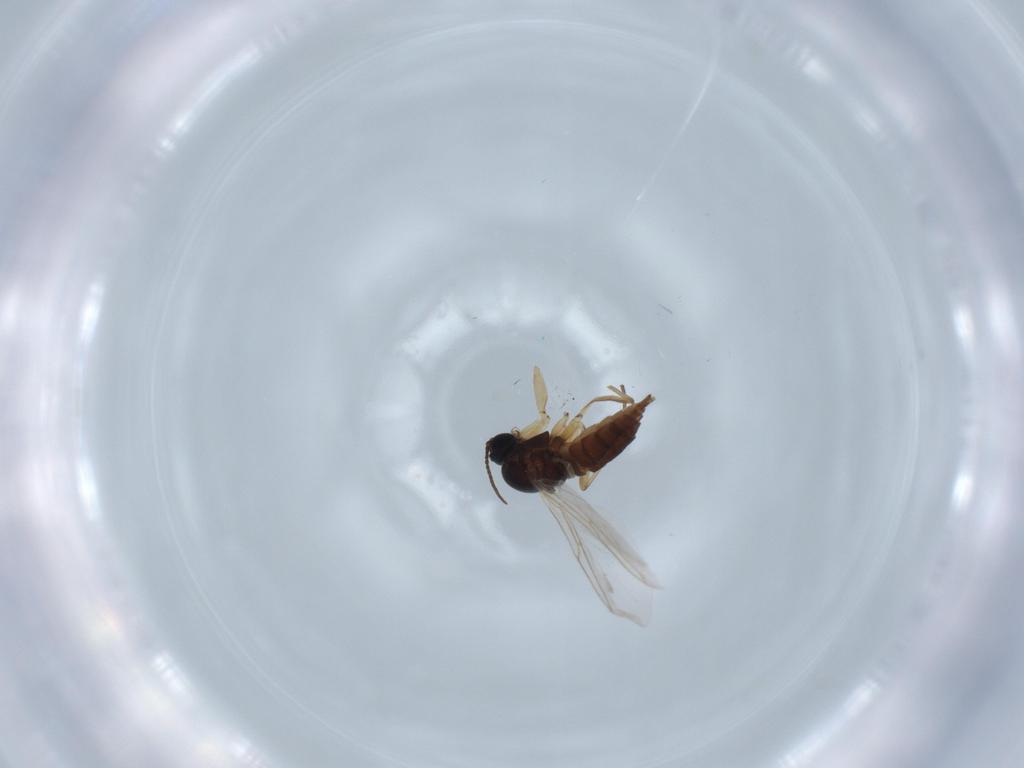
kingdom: Animalia
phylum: Arthropoda
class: Insecta
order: Diptera
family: Sciaridae
